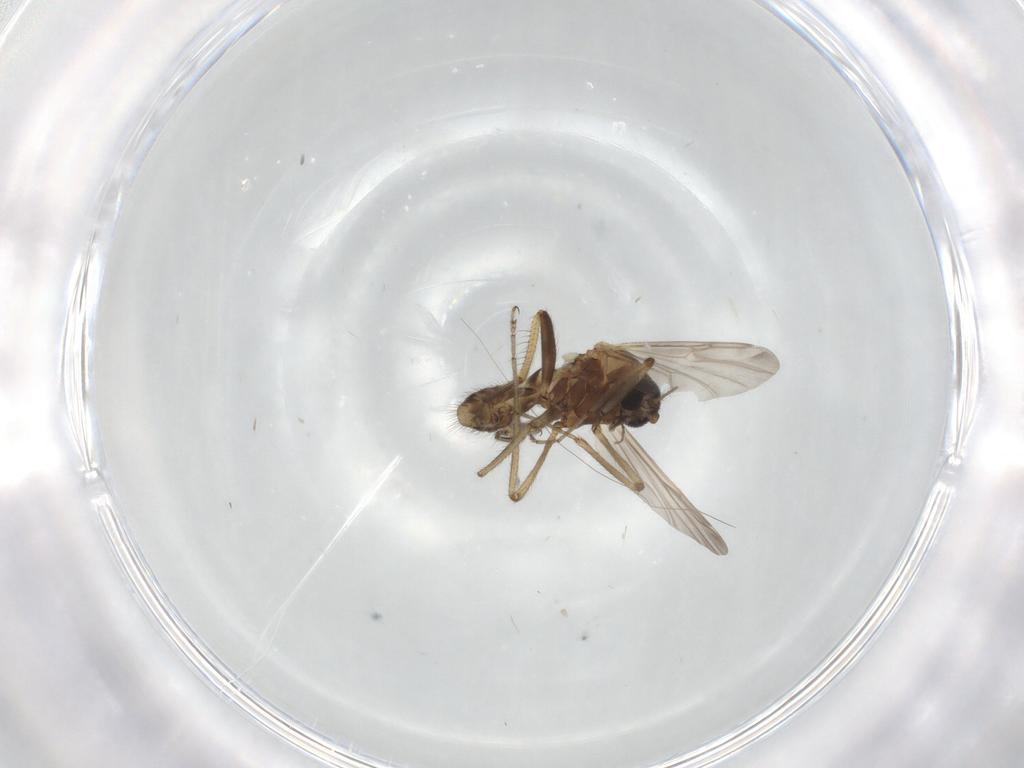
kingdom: Animalia
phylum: Arthropoda
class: Insecta
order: Diptera
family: Ceratopogonidae
